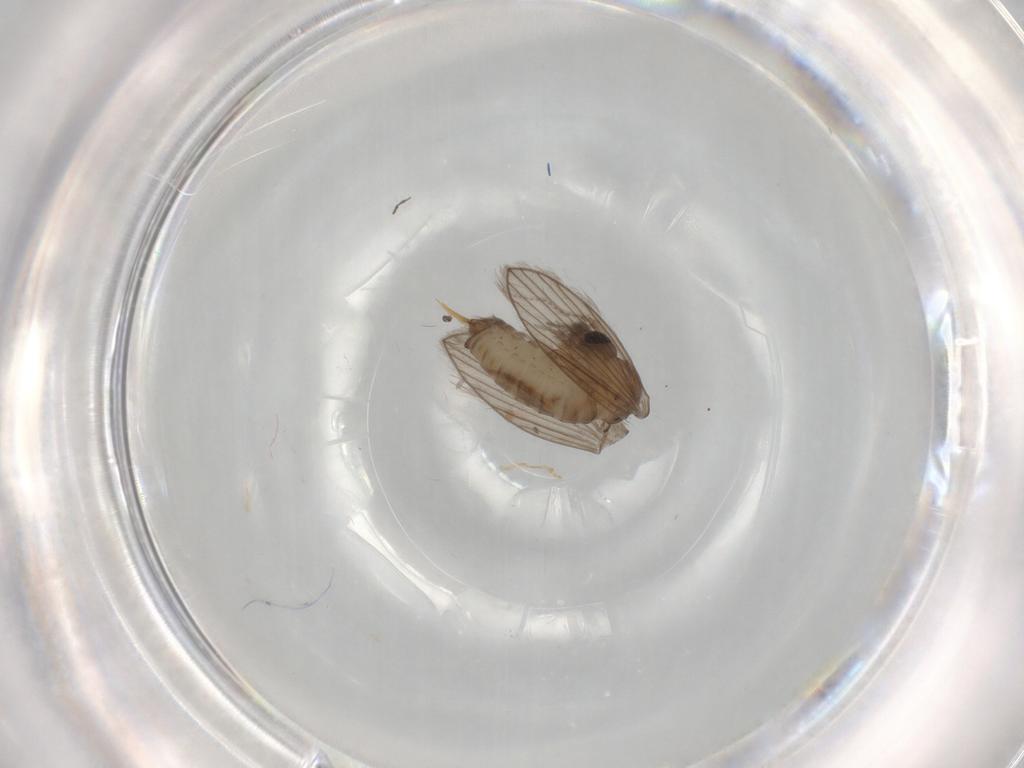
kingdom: Animalia
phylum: Arthropoda
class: Insecta
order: Diptera
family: Psychodidae
